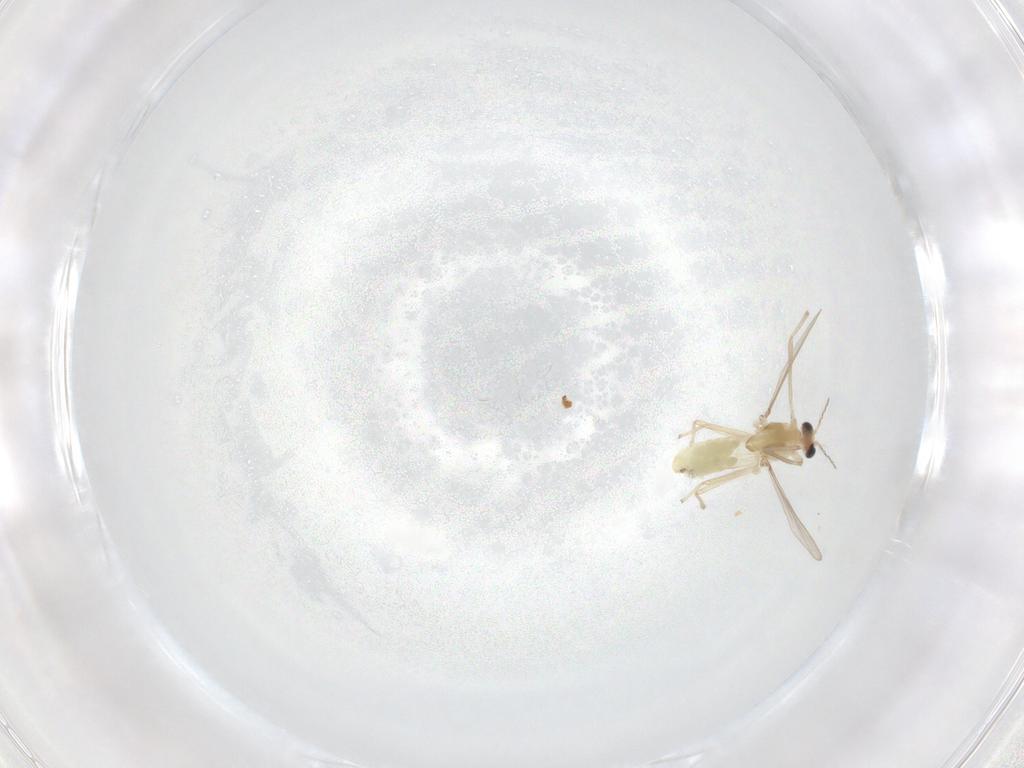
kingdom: Animalia
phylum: Arthropoda
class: Insecta
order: Diptera
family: Chironomidae
